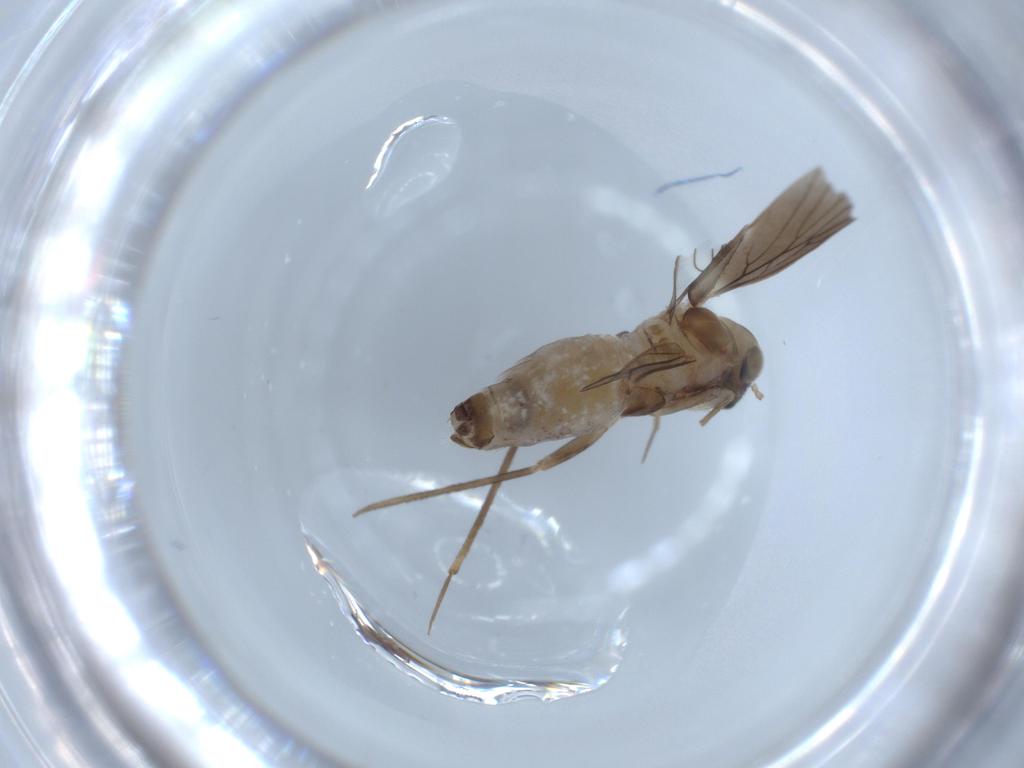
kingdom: Animalia
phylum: Arthropoda
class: Insecta
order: Psocodea
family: Lepidopsocidae
